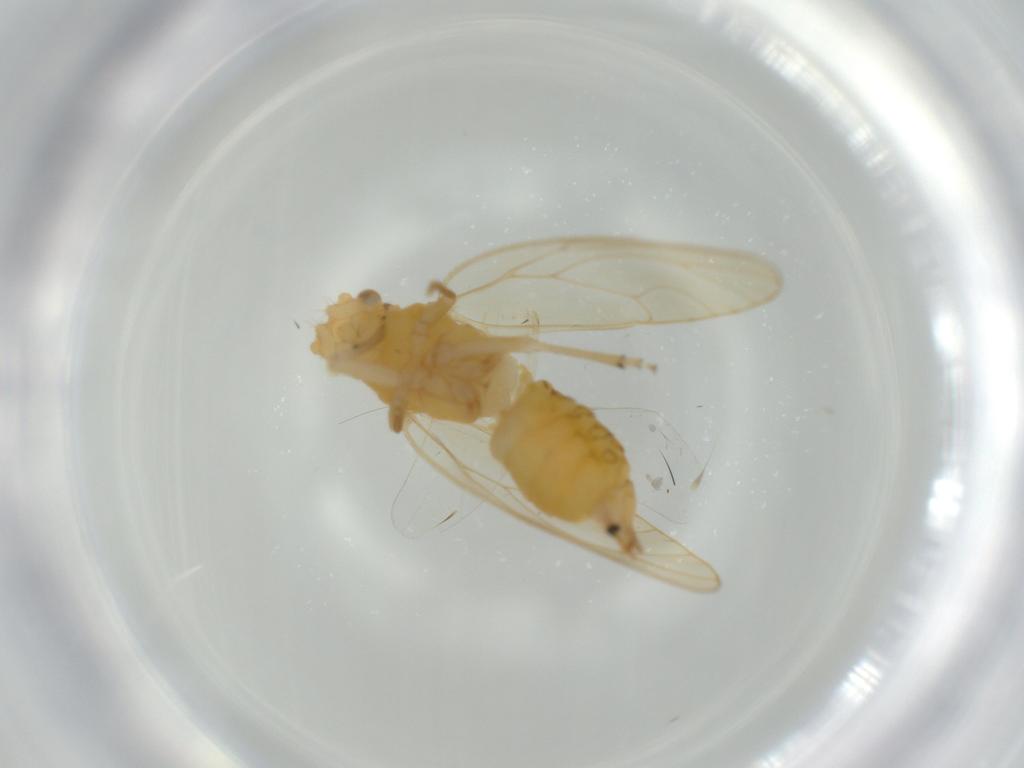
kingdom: Animalia
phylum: Arthropoda
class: Insecta
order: Hemiptera
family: Psyllidae
